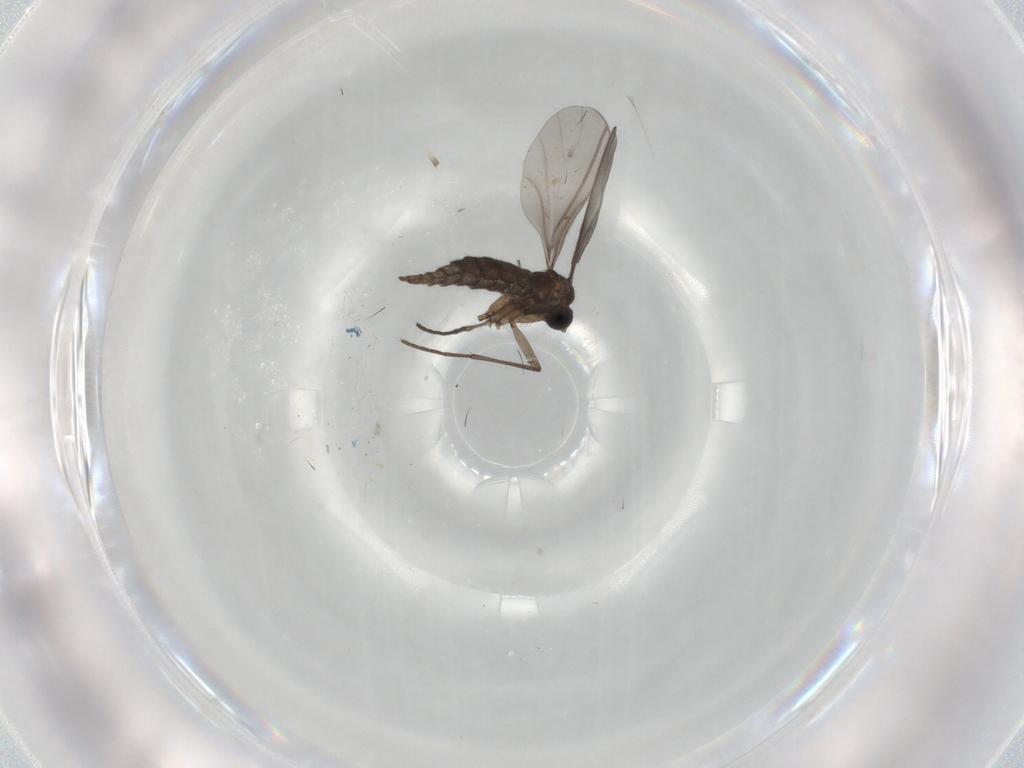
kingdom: Animalia
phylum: Arthropoda
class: Insecta
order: Diptera
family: Sciaridae
